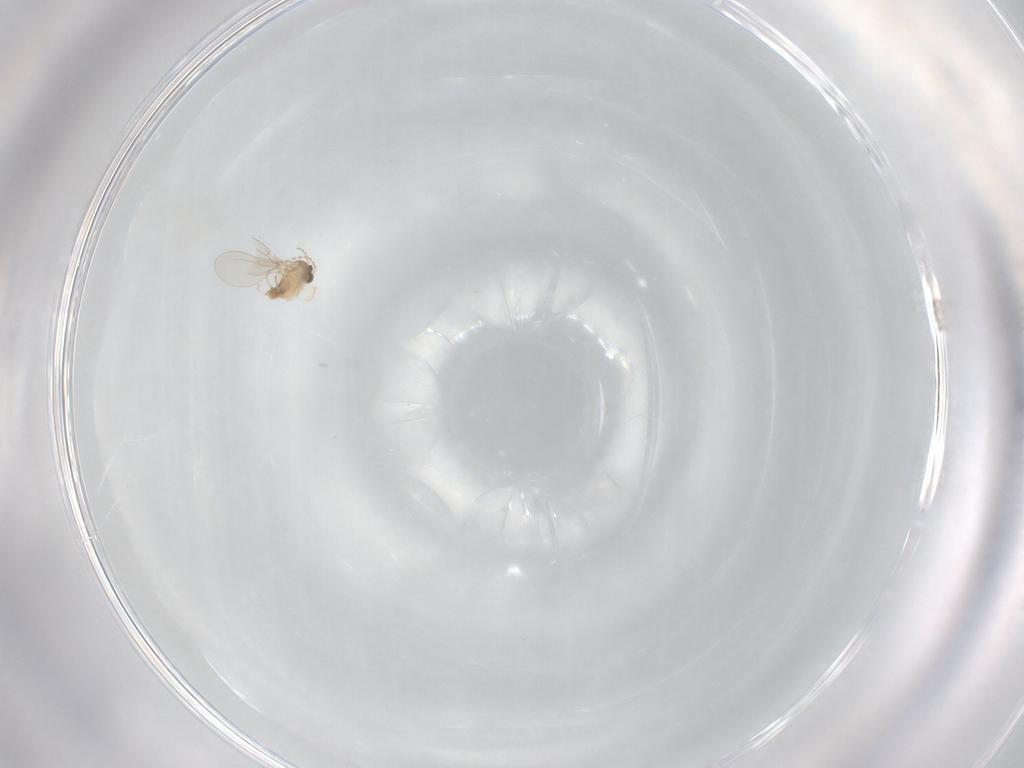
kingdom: Animalia
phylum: Arthropoda
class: Insecta
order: Diptera
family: Cecidomyiidae
